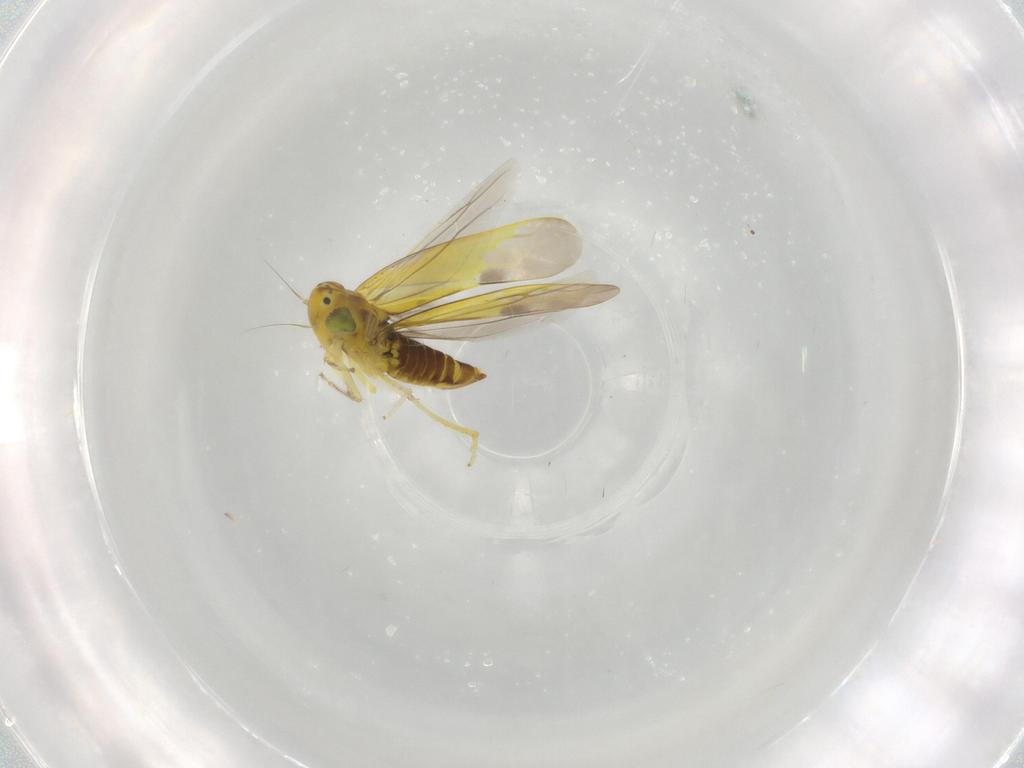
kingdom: Animalia
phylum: Arthropoda
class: Insecta
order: Hemiptera
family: Cicadellidae
